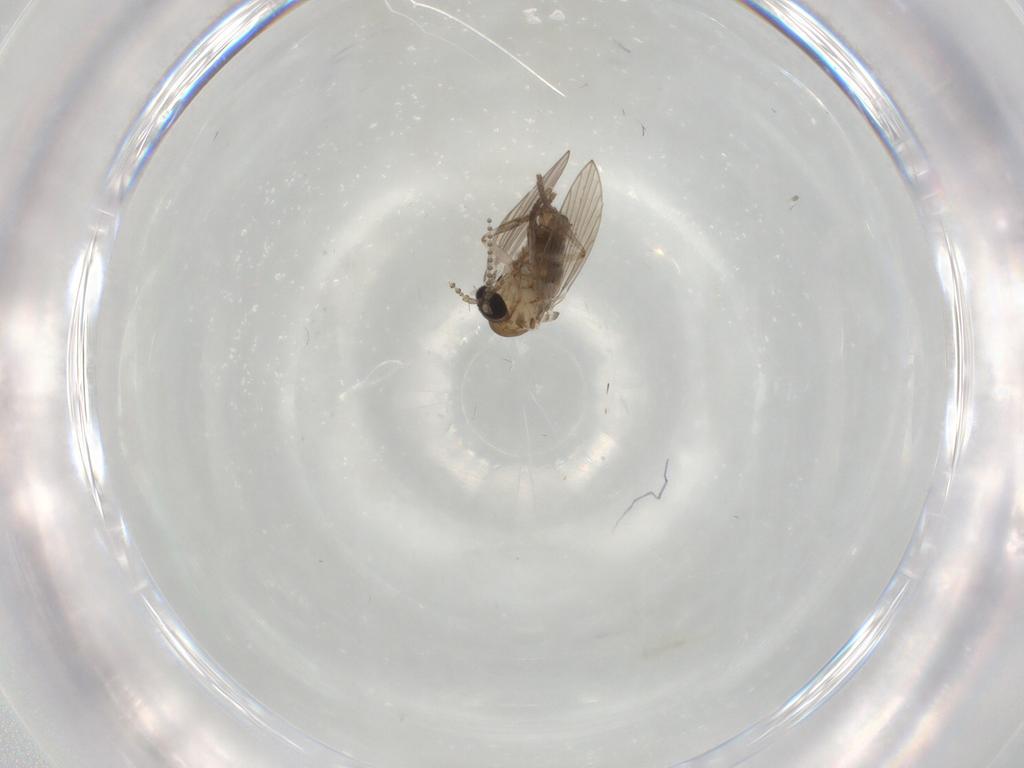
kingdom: Animalia
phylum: Arthropoda
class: Insecta
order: Diptera
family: Psychodidae
